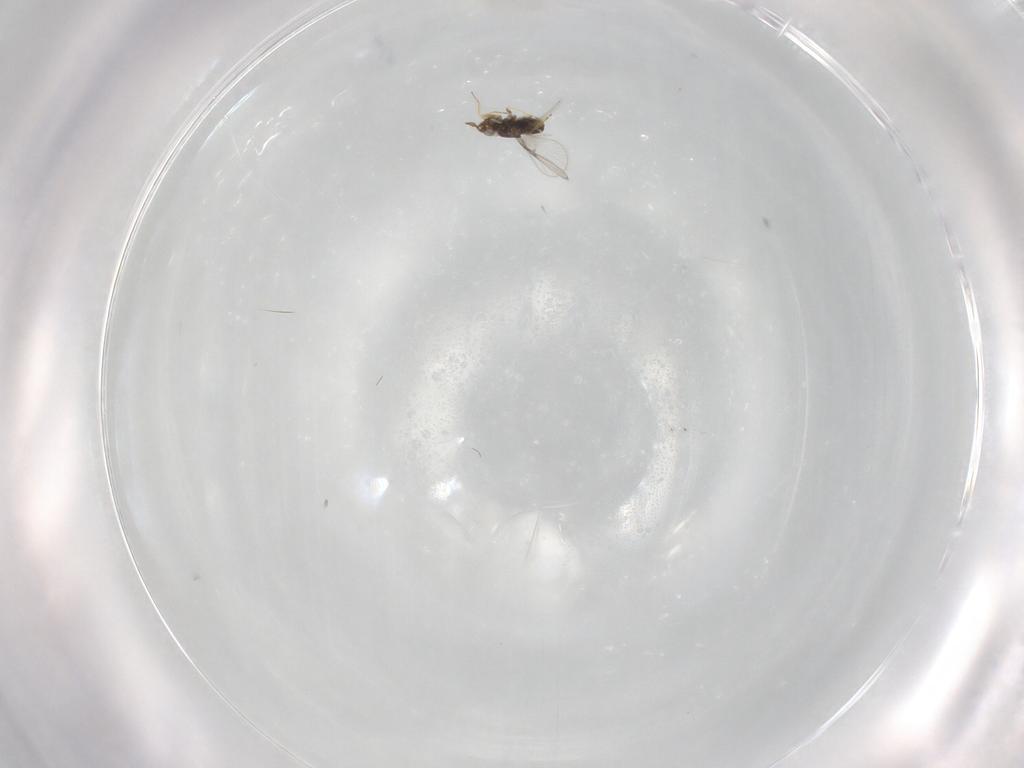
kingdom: Animalia
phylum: Arthropoda
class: Insecta
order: Hymenoptera
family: Trichogrammatidae
